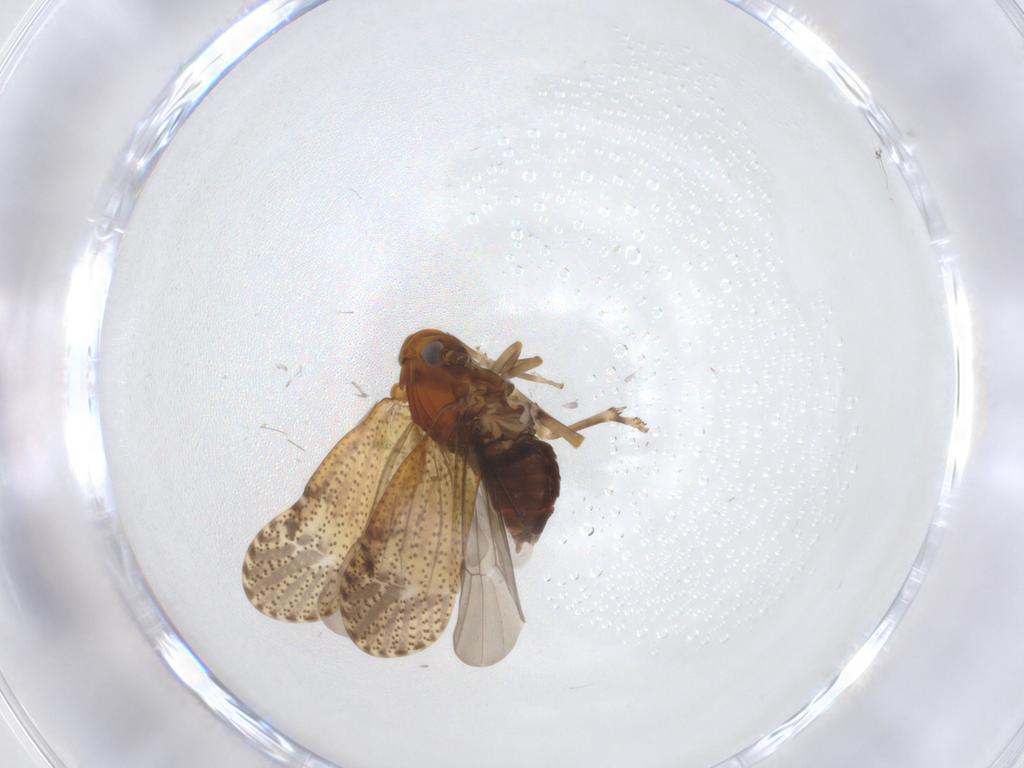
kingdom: Animalia
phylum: Arthropoda
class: Insecta
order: Hemiptera
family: Delphacidae
